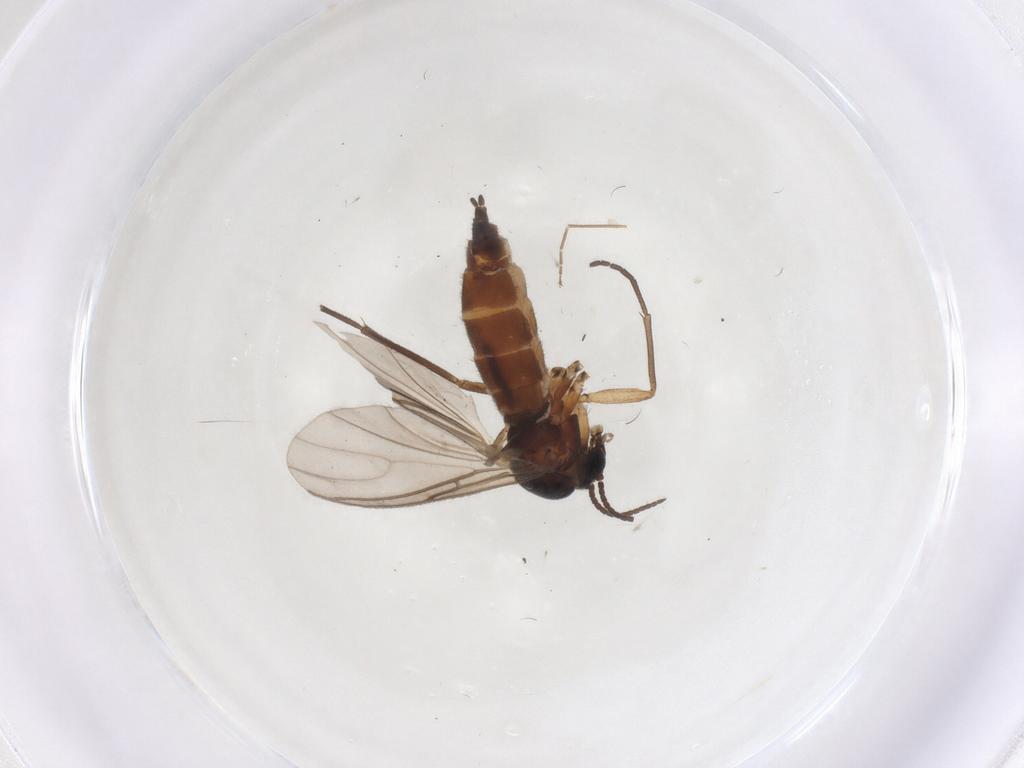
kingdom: Animalia
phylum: Arthropoda
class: Insecta
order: Diptera
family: Sciaridae
